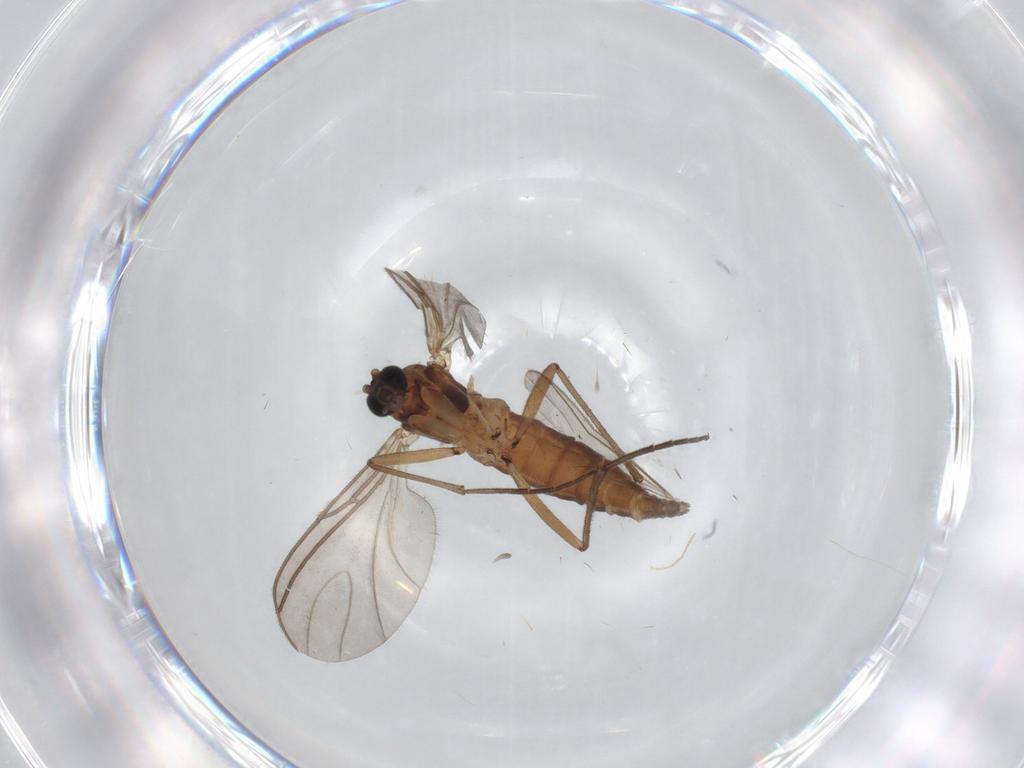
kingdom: Animalia
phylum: Arthropoda
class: Insecta
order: Diptera
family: Sciaridae
